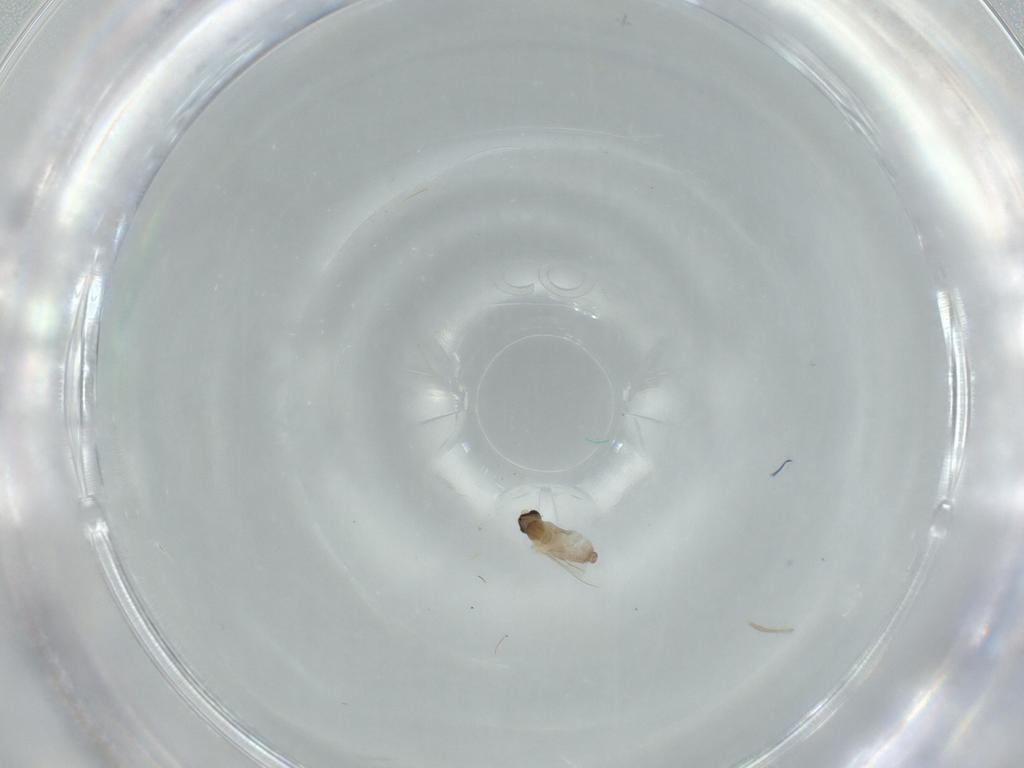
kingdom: Animalia
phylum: Arthropoda
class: Insecta
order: Diptera
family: Cecidomyiidae
